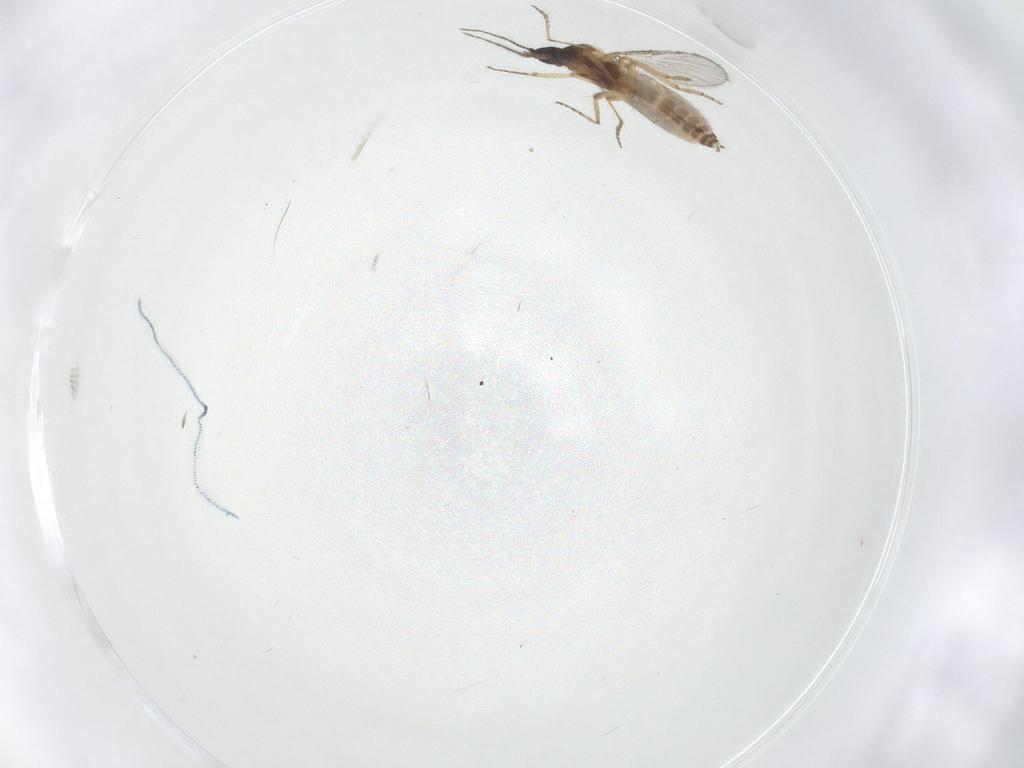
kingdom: Animalia
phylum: Arthropoda
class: Insecta
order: Diptera
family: Ceratopogonidae
